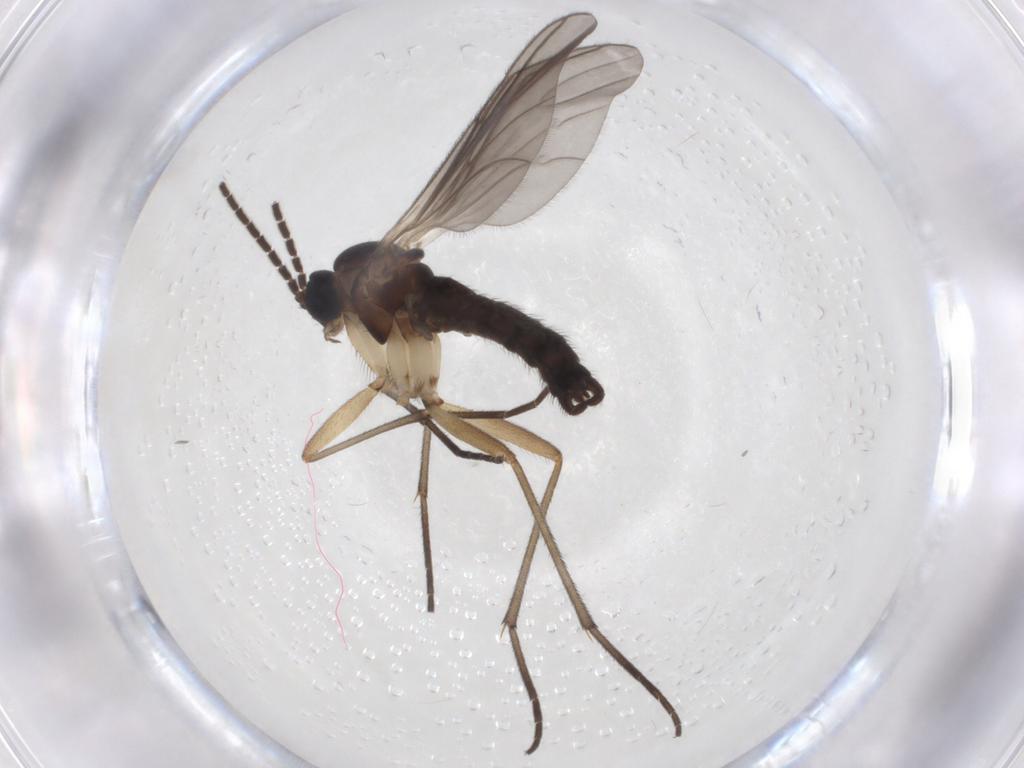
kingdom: Animalia
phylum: Arthropoda
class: Insecta
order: Diptera
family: Sciaridae
